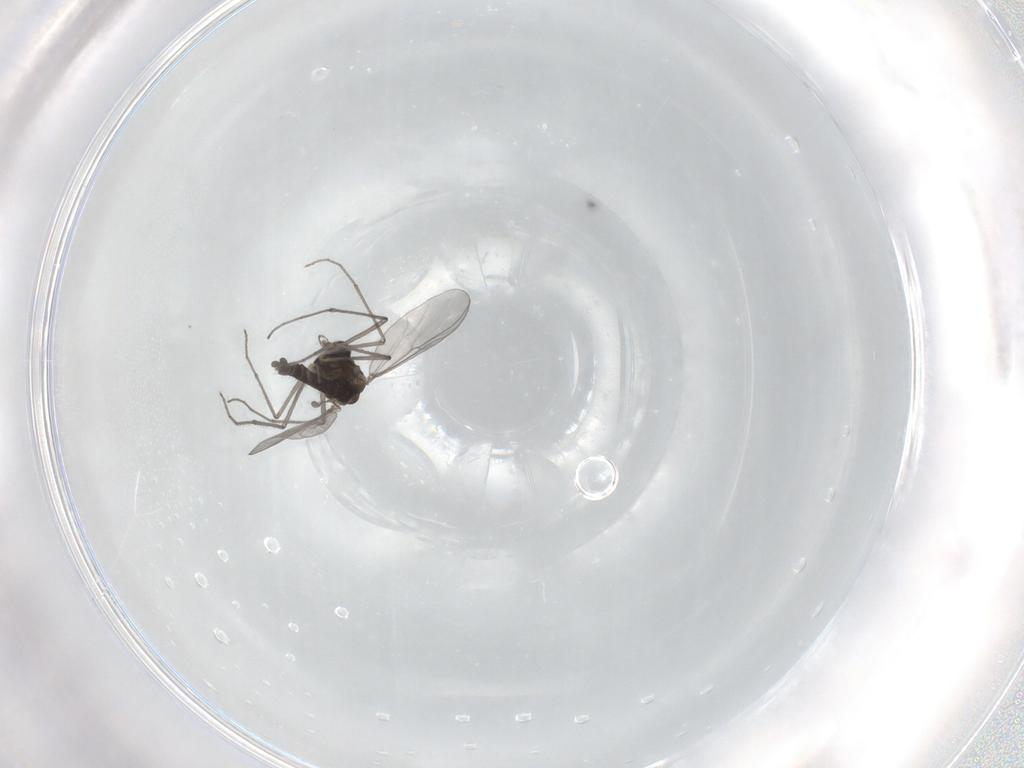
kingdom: Animalia
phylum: Arthropoda
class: Insecta
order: Diptera
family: Chironomidae
